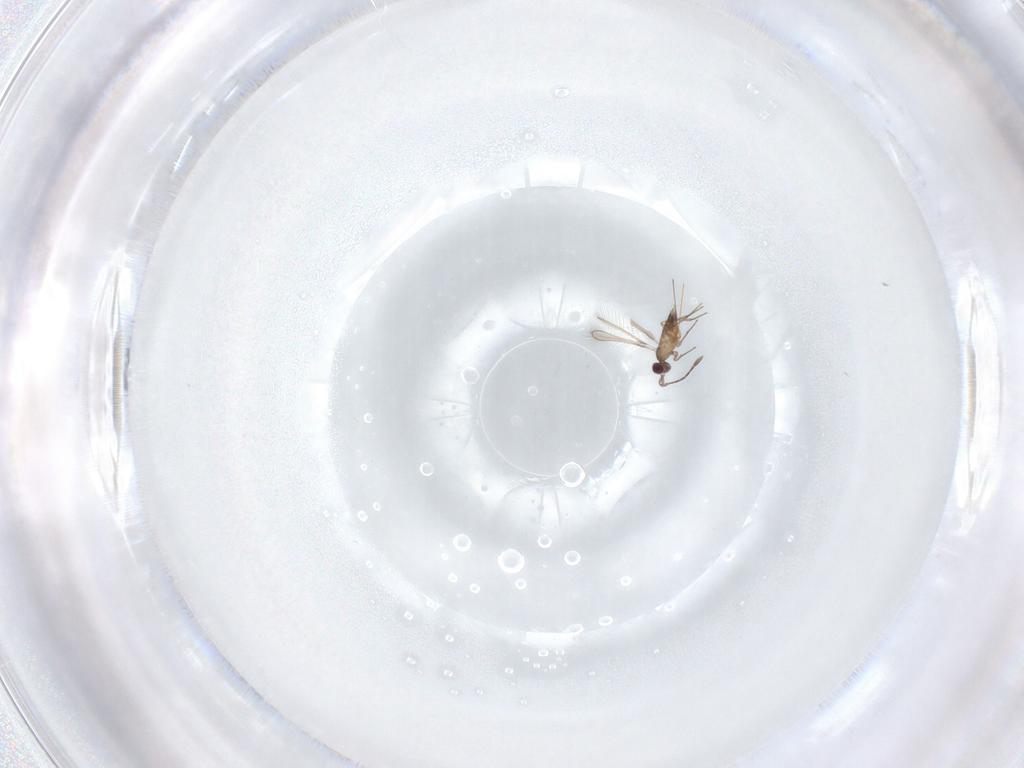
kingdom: Animalia
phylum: Arthropoda
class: Insecta
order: Hymenoptera
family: Mymaridae
